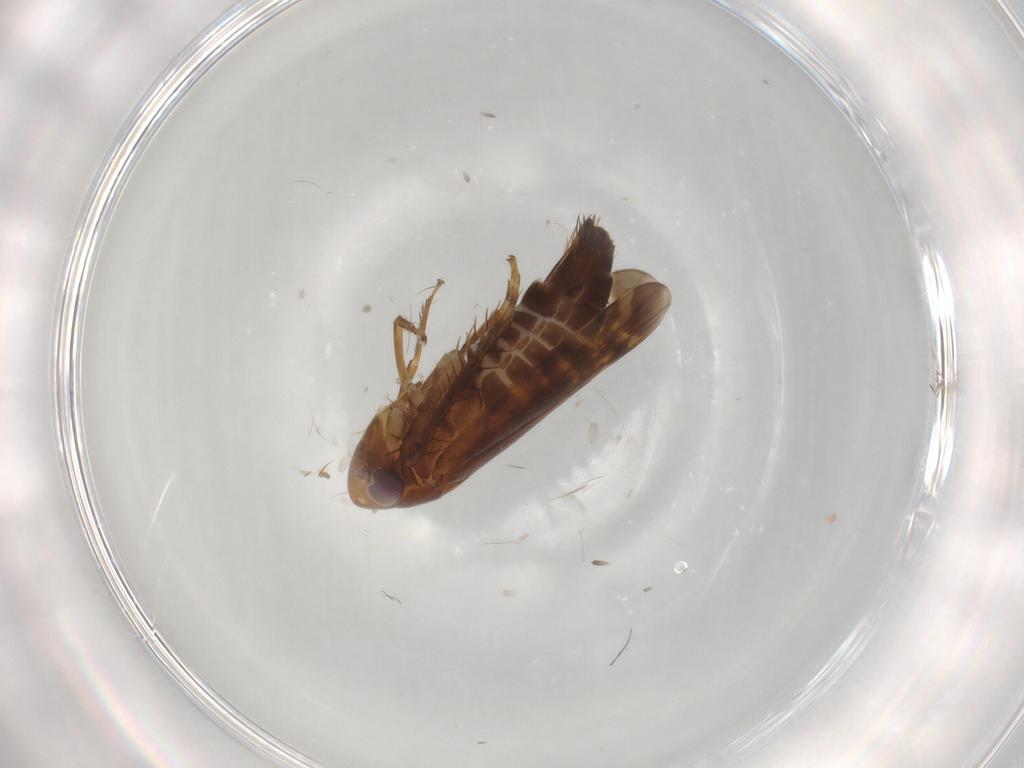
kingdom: Animalia
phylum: Arthropoda
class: Insecta
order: Hemiptera
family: Cicadellidae
